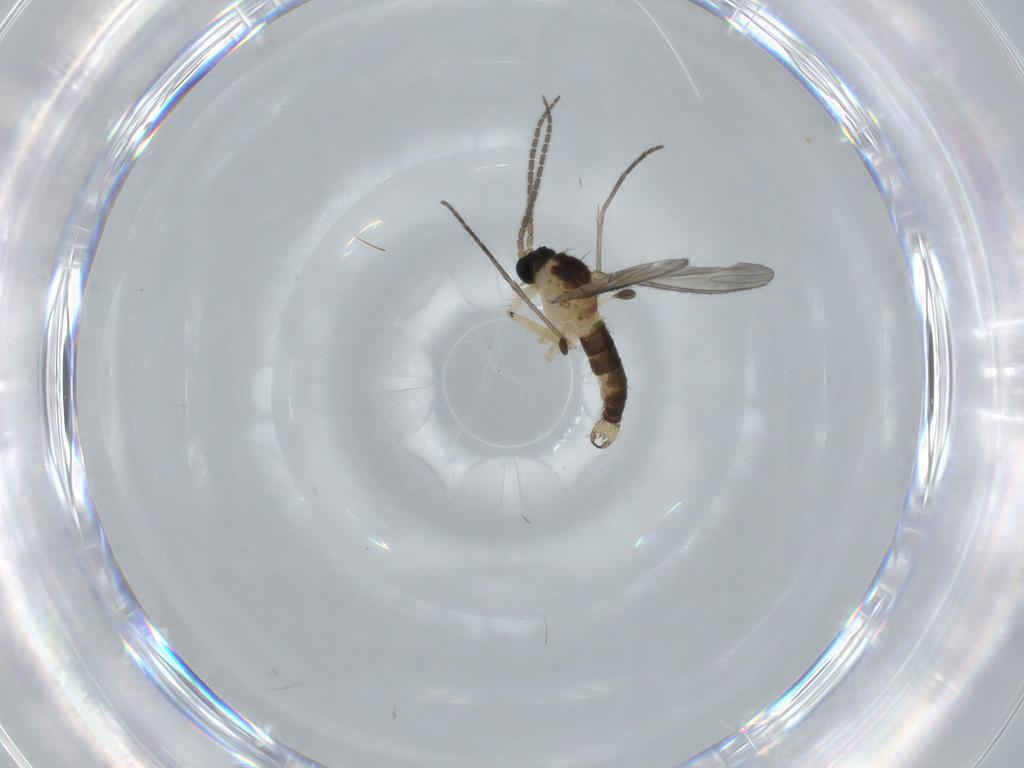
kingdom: Animalia
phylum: Arthropoda
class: Insecta
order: Diptera
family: Sciaridae
